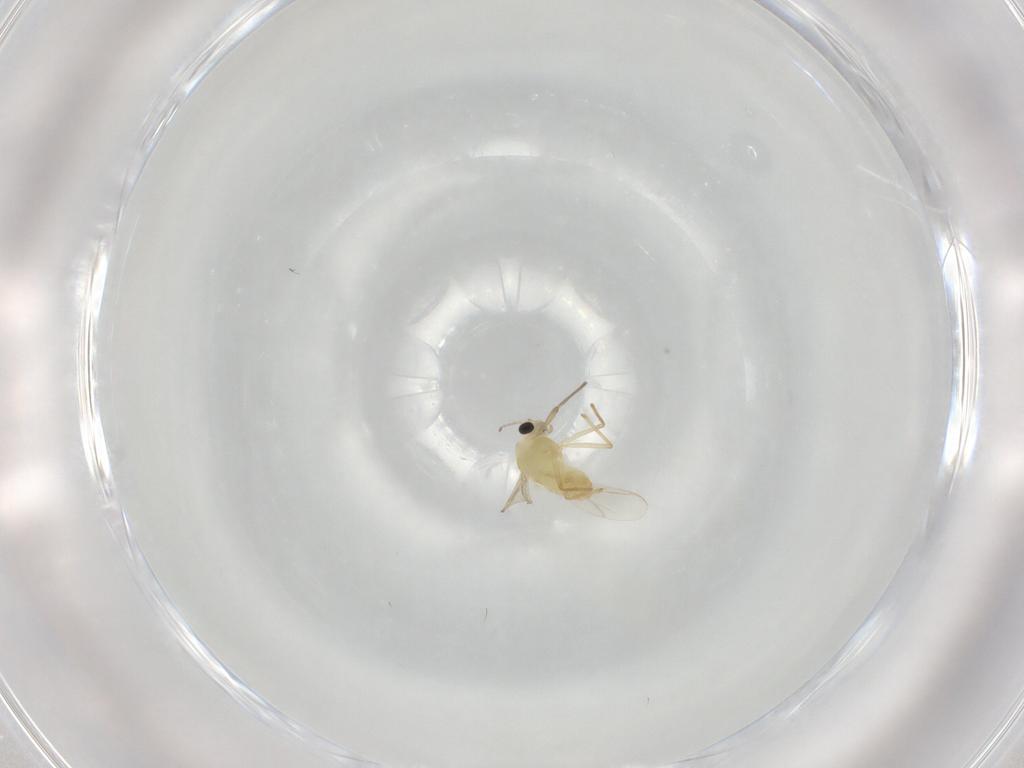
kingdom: Animalia
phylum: Arthropoda
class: Insecta
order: Diptera
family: Chironomidae
